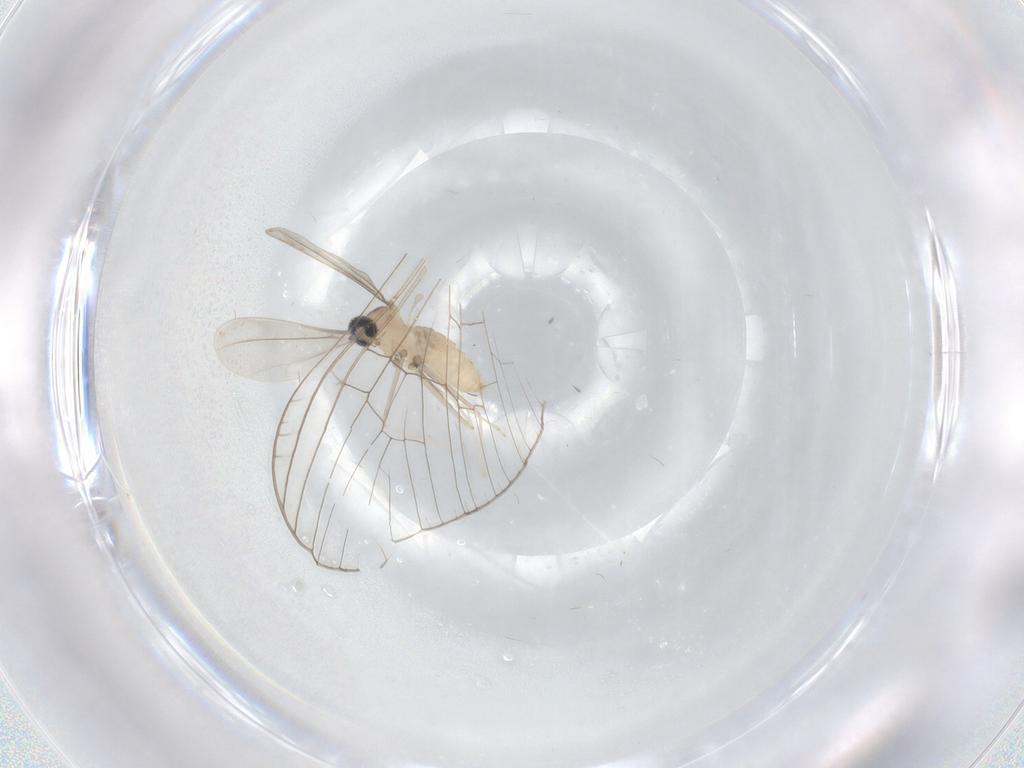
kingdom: Animalia
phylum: Arthropoda
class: Insecta
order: Diptera
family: Cecidomyiidae
